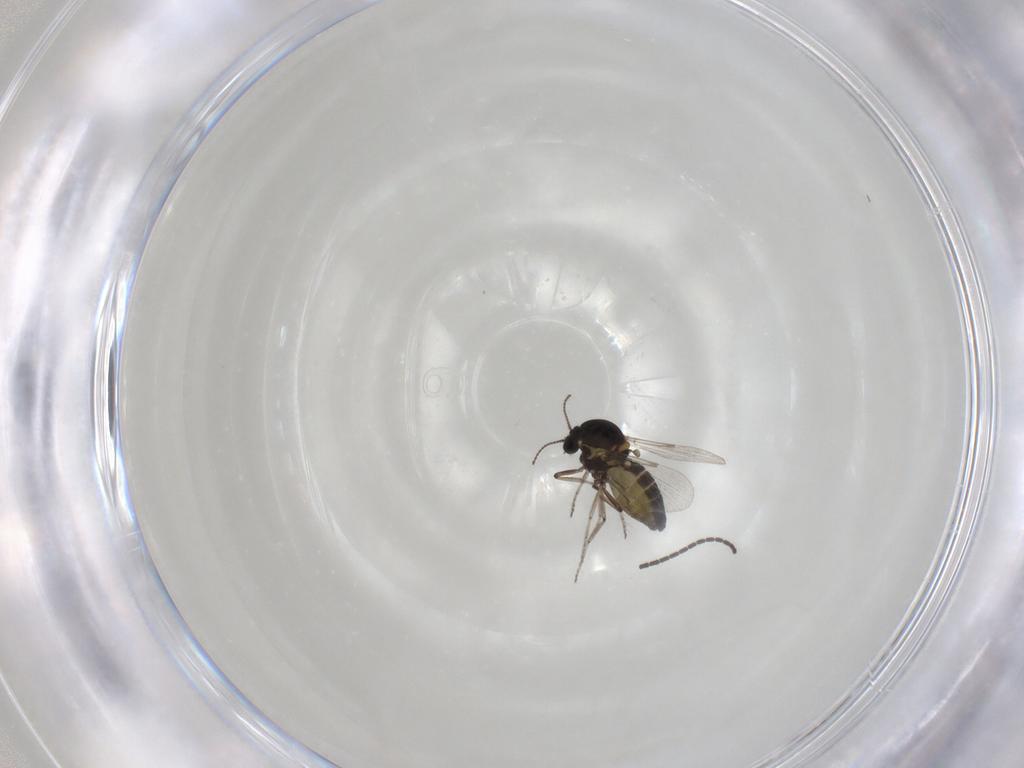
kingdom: Animalia
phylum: Arthropoda
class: Insecta
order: Diptera
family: Ceratopogonidae
